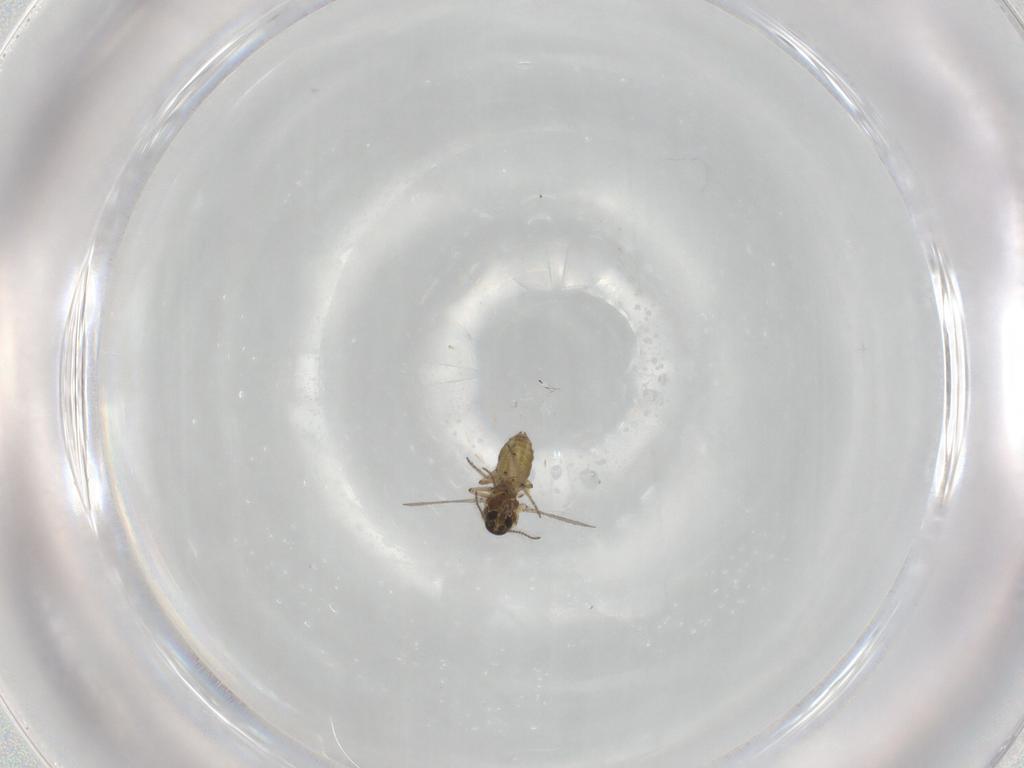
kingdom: Animalia
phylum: Arthropoda
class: Insecta
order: Diptera
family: Ceratopogonidae
